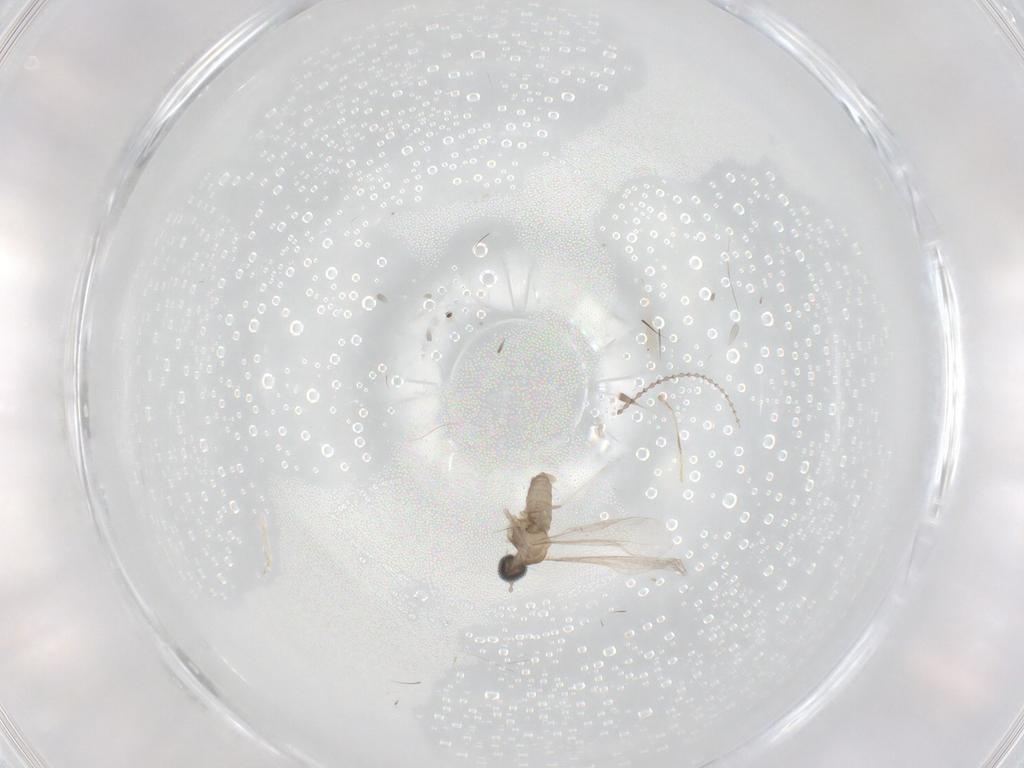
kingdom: Animalia
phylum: Arthropoda
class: Insecta
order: Diptera
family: Cecidomyiidae
